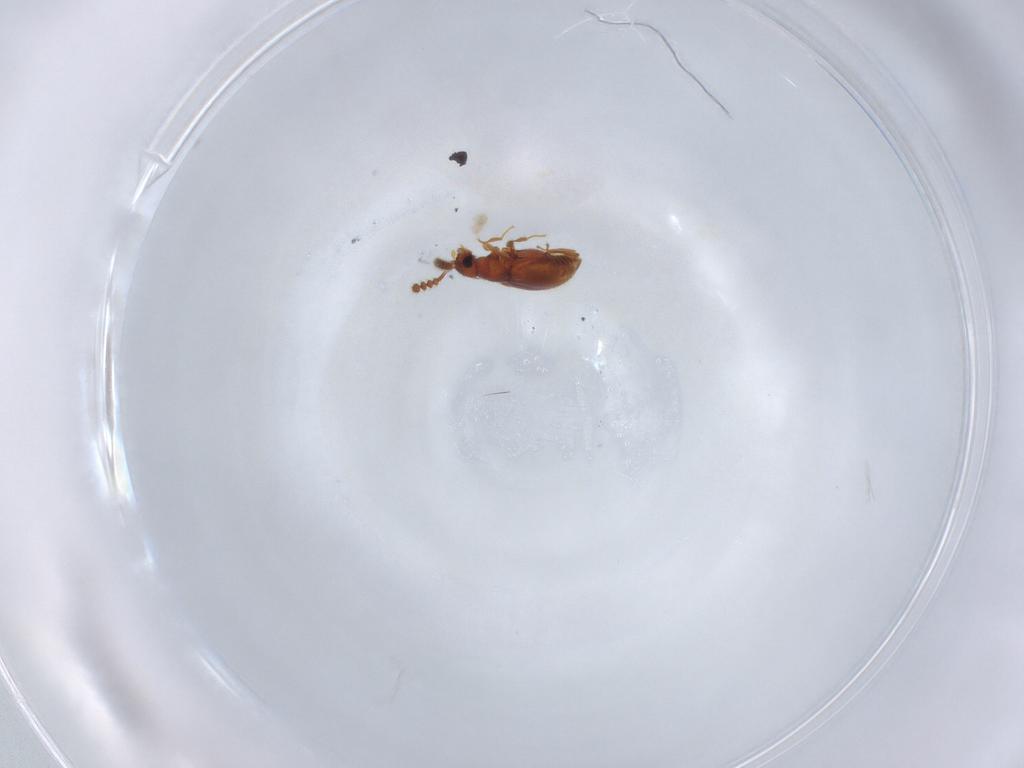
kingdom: Animalia
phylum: Arthropoda
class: Insecta
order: Coleoptera
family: Staphylinidae
